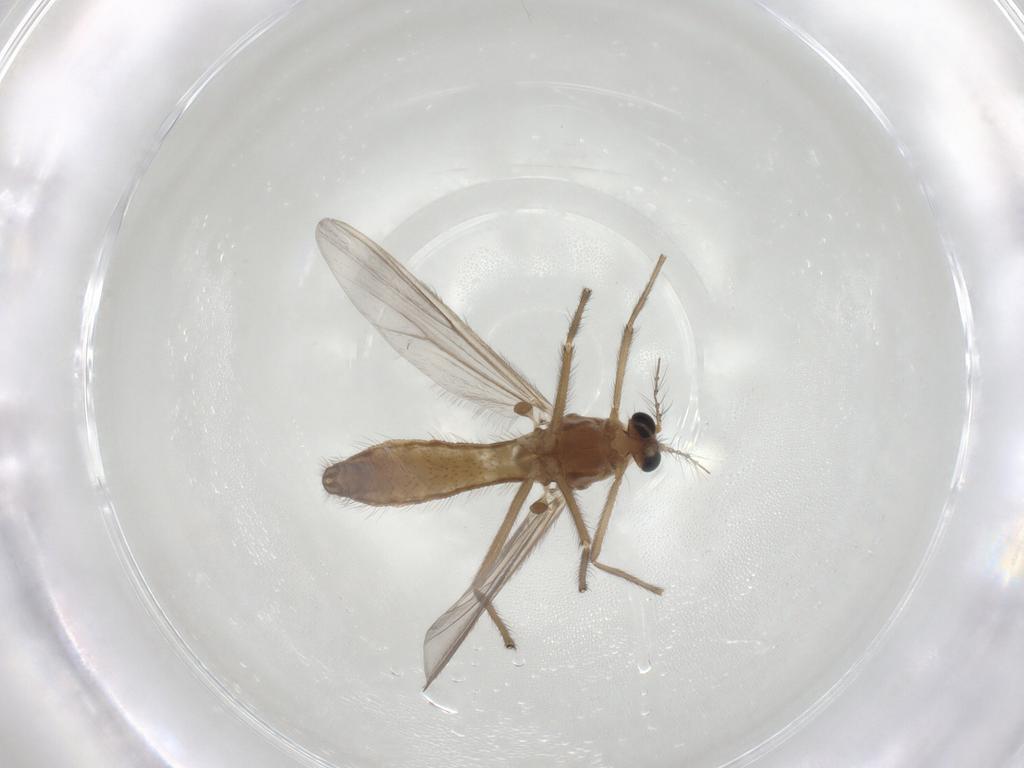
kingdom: Animalia
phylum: Arthropoda
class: Insecta
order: Diptera
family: Chironomidae
